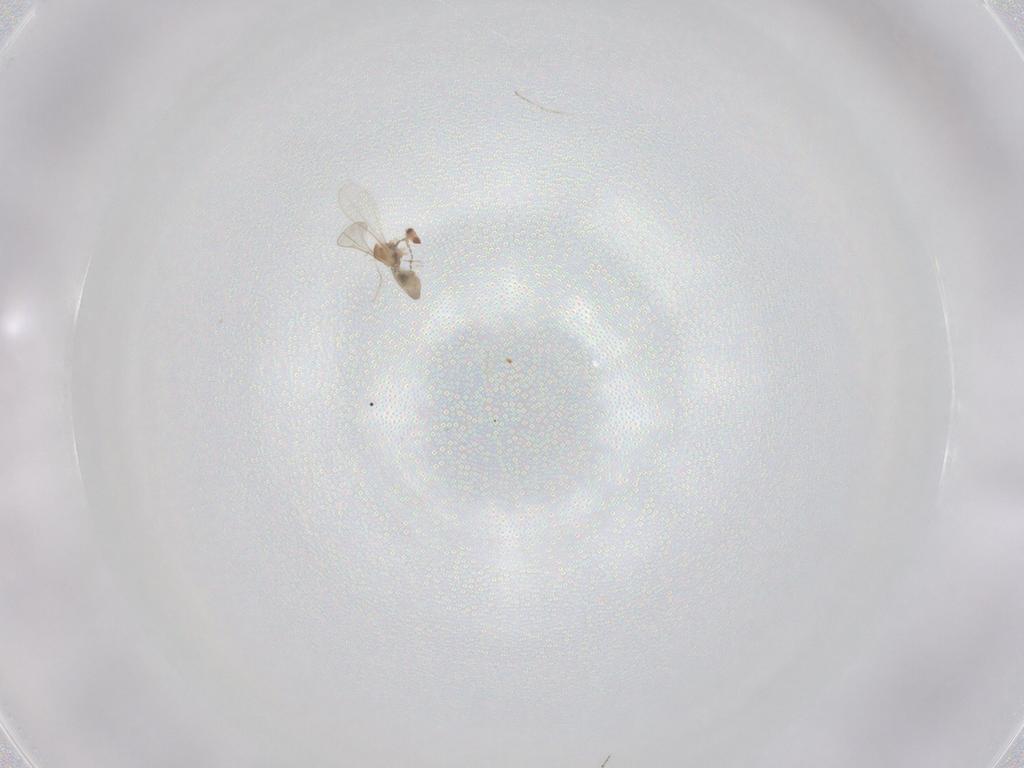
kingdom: Animalia
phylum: Arthropoda
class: Insecta
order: Diptera
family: Cecidomyiidae
